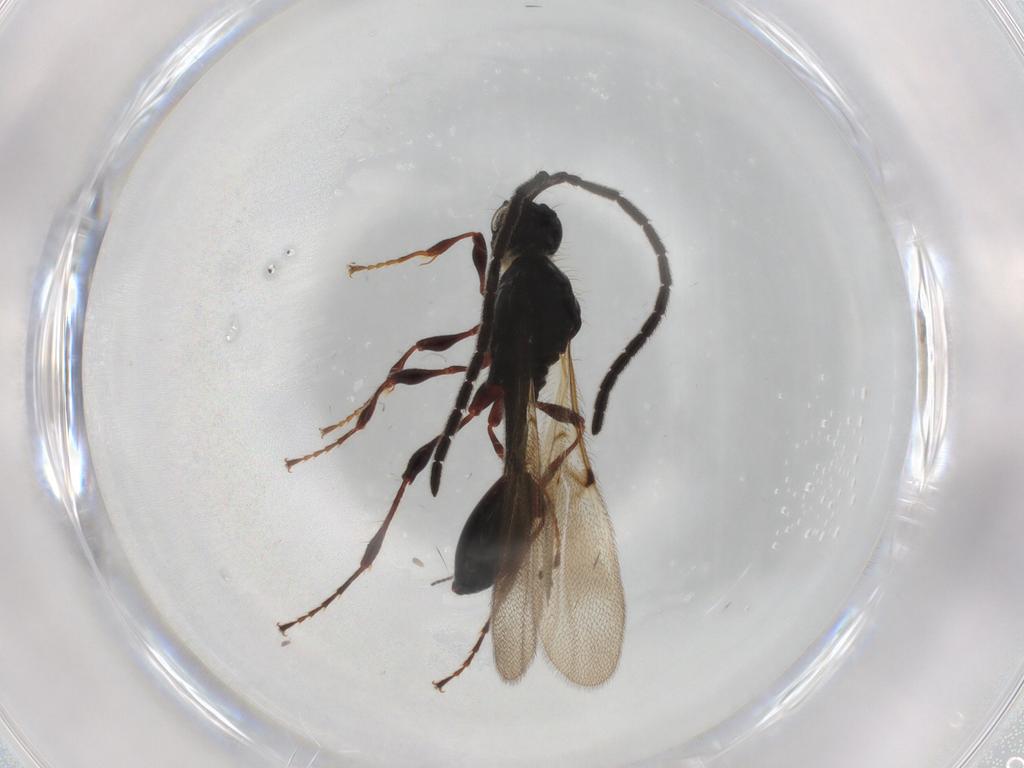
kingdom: Animalia
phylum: Arthropoda
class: Insecta
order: Hymenoptera
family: Diapriidae
